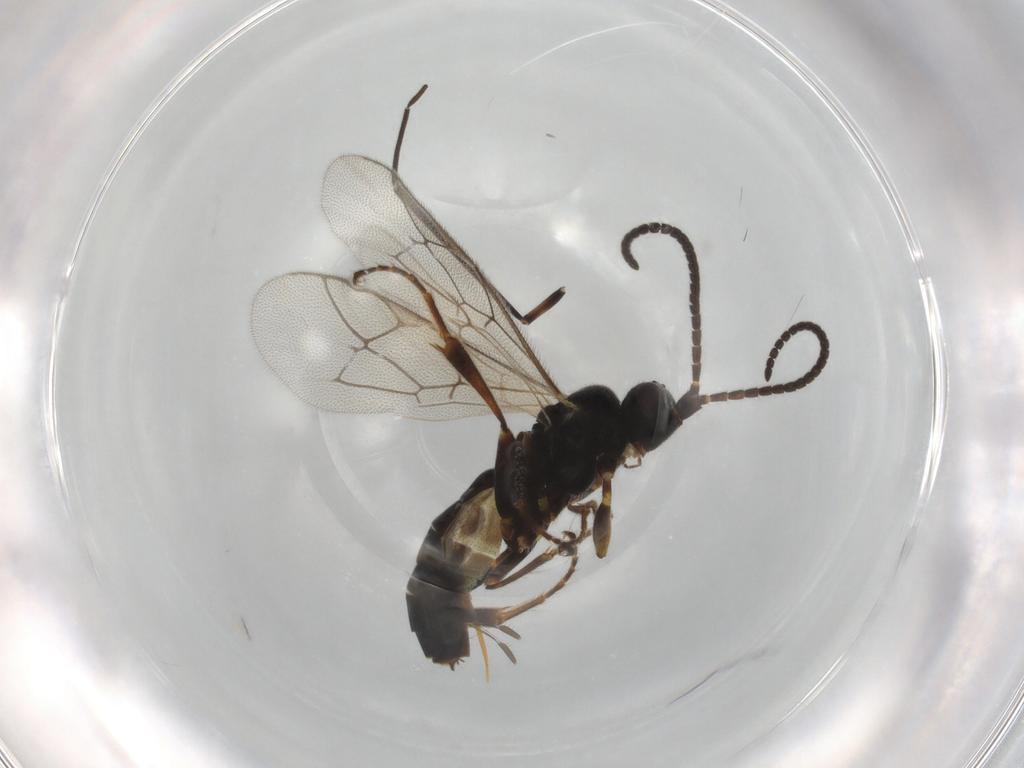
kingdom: Animalia
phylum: Arthropoda
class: Insecta
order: Hymenoptera
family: Ichneumonidae
